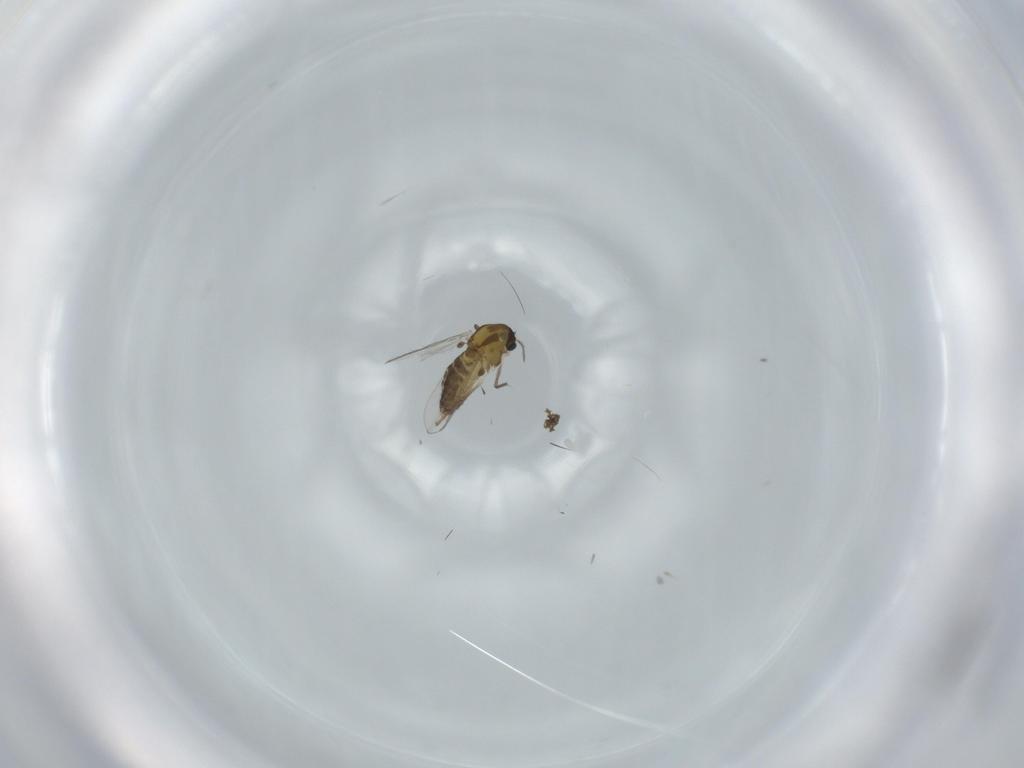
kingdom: Animalia
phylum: Arthropoda
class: Insecta
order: Diptera
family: Chironomidae
